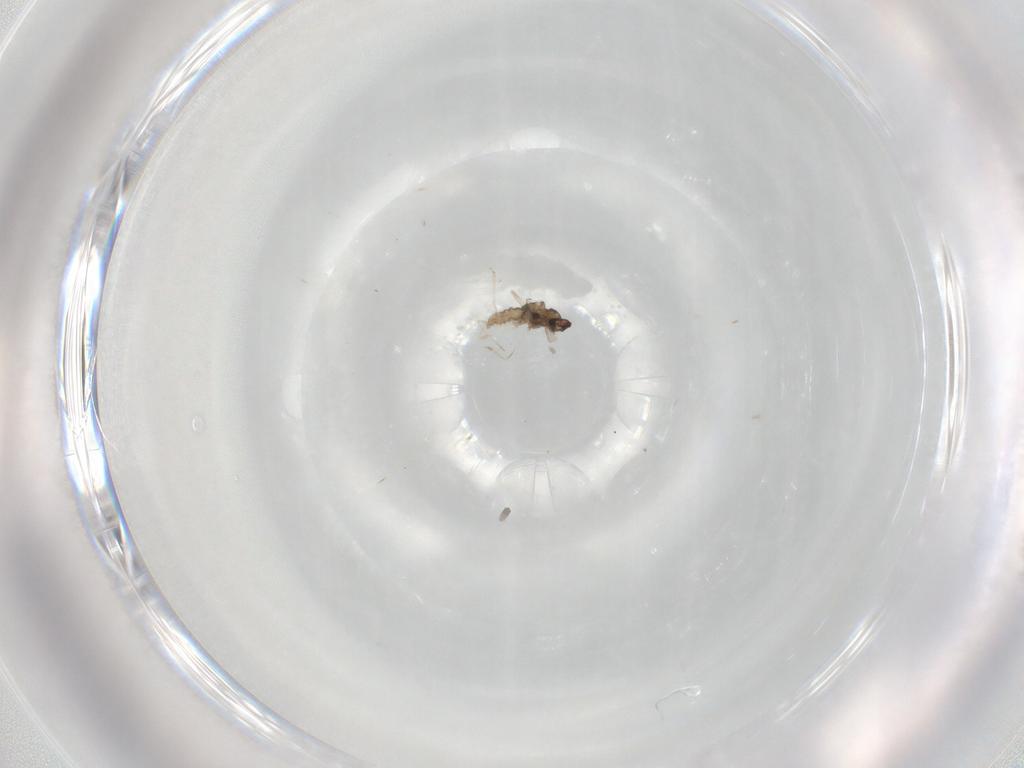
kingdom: Animalia
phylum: Arthropoda
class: Insecta
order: Diptera
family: Cecidomyiidae
